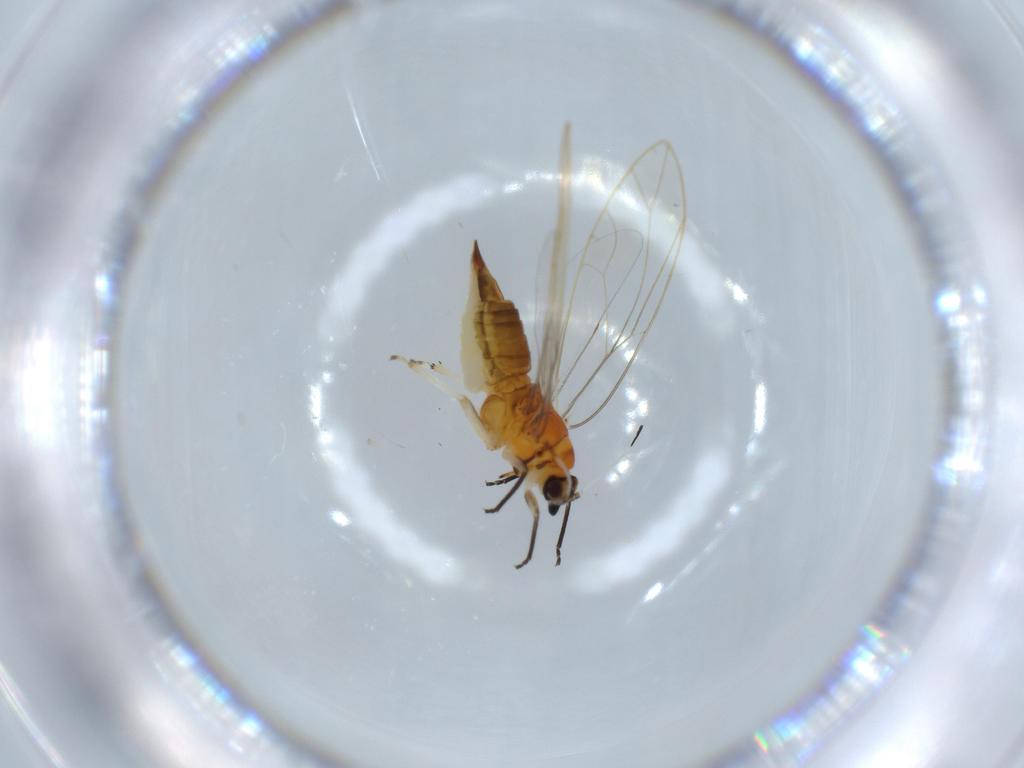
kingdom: Animalia
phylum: Arthropoda
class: Insecta
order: Hemiptera
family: Triozidae
